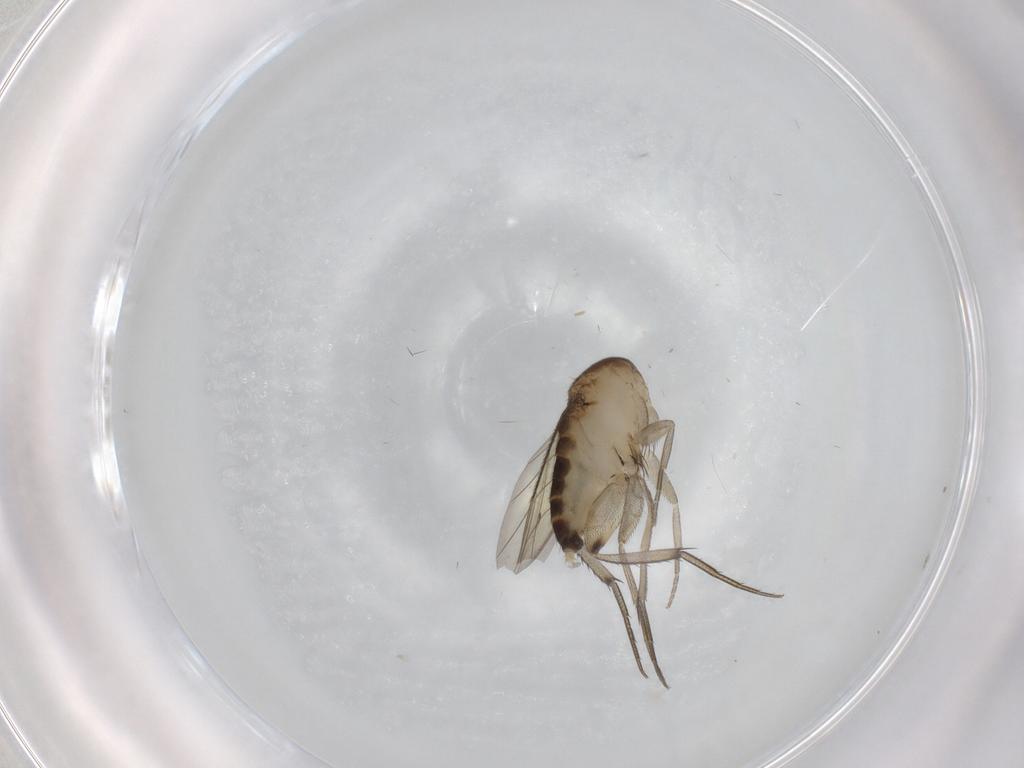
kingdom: Animalia
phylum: Arthropoda
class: Insecta
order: Diptera
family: Phoridae
